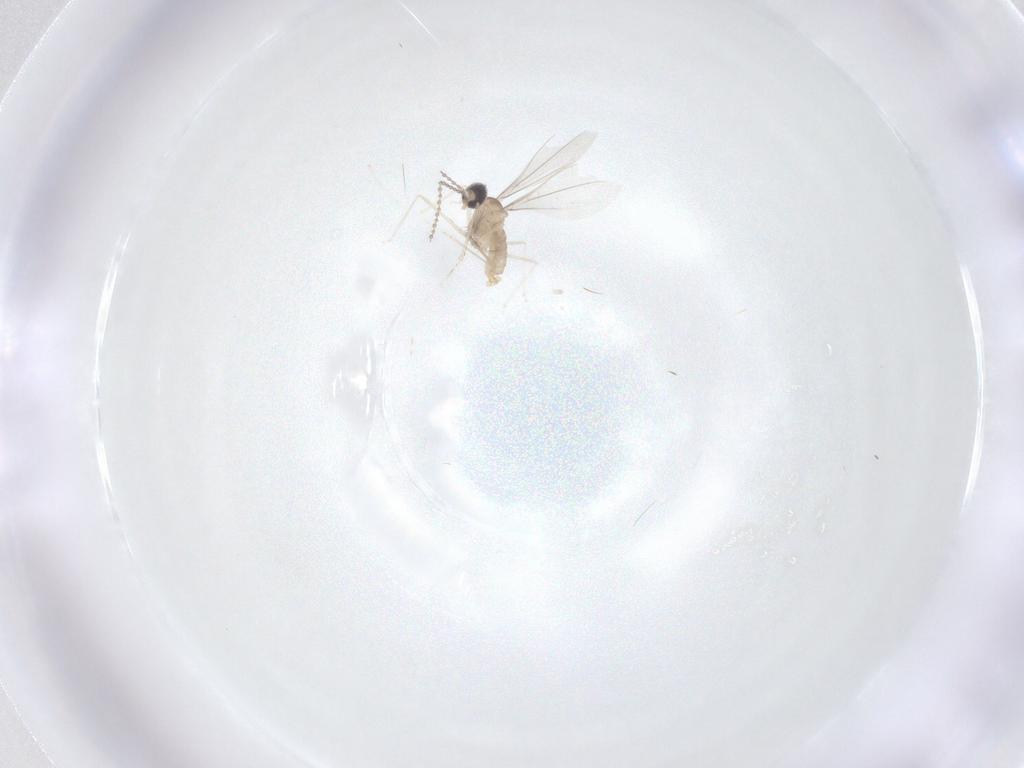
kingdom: Animalia
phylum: Arthropoda
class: Insecta
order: Diptera
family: Cecidomyiidae
